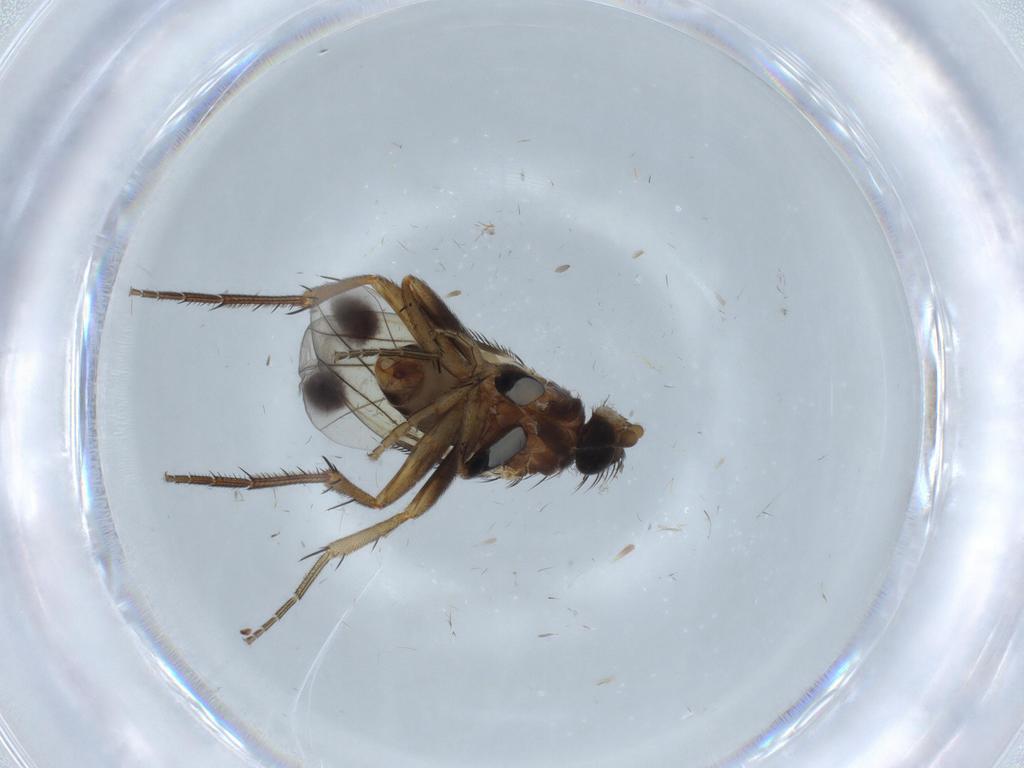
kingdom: Animalia
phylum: Arthropoda
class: Insecta
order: Diptera
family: Phoridae
